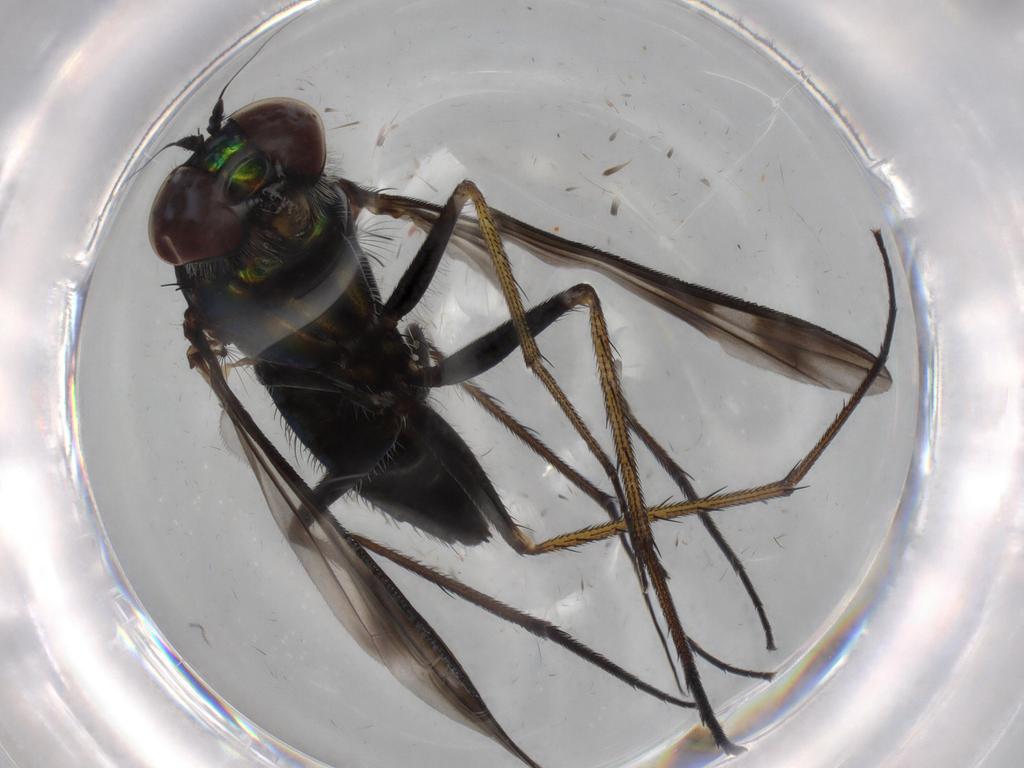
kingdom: Animalia
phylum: Arthropoda
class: Insecta
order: Diptera
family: Dolichopodidae
